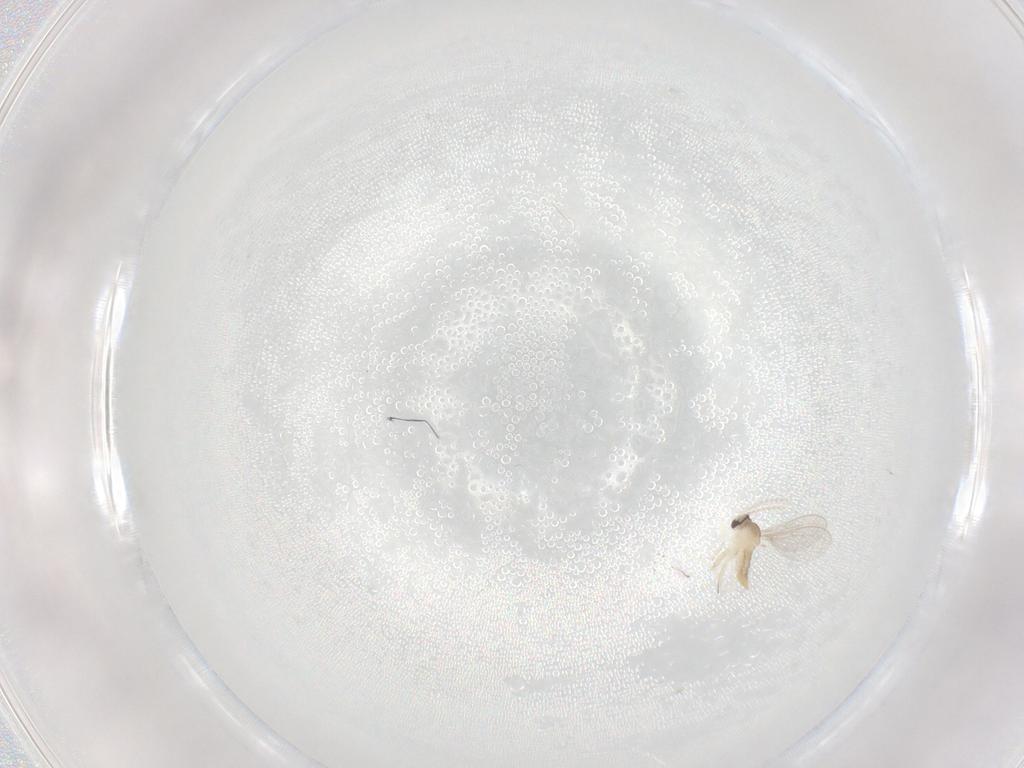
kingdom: Animalia
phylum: Arthropoda
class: Insecta
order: Diptera
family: Cecidomyiidae
